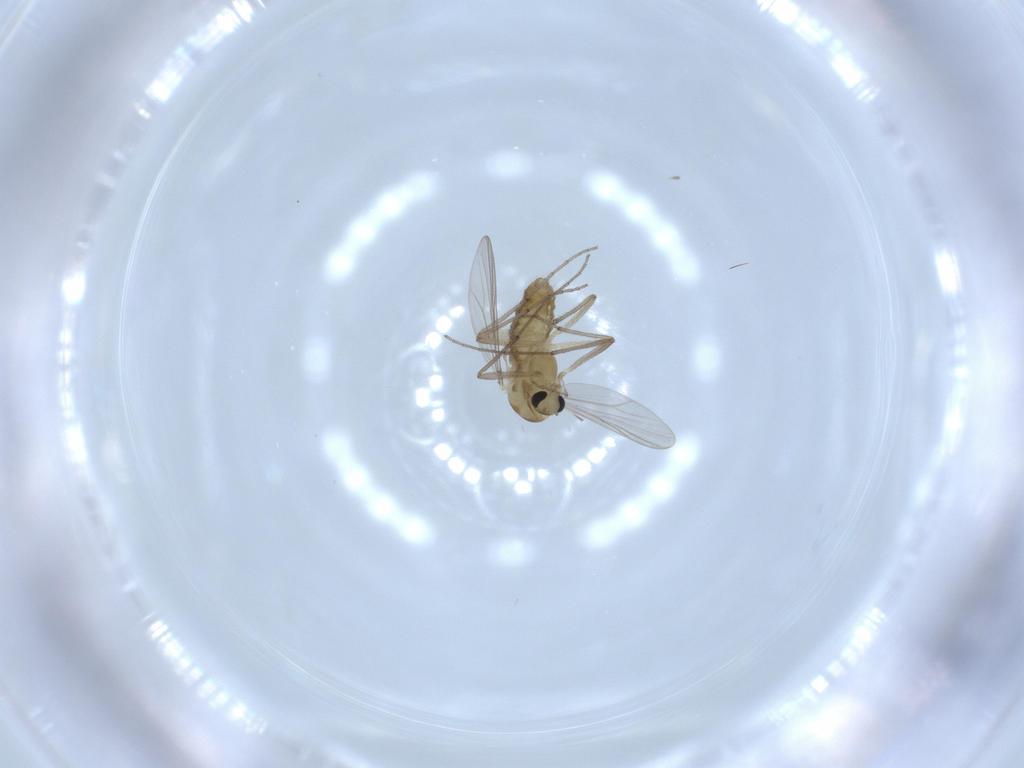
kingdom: Animalia
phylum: Arthropoda
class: Insecta
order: Diptera
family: Chironomidae
